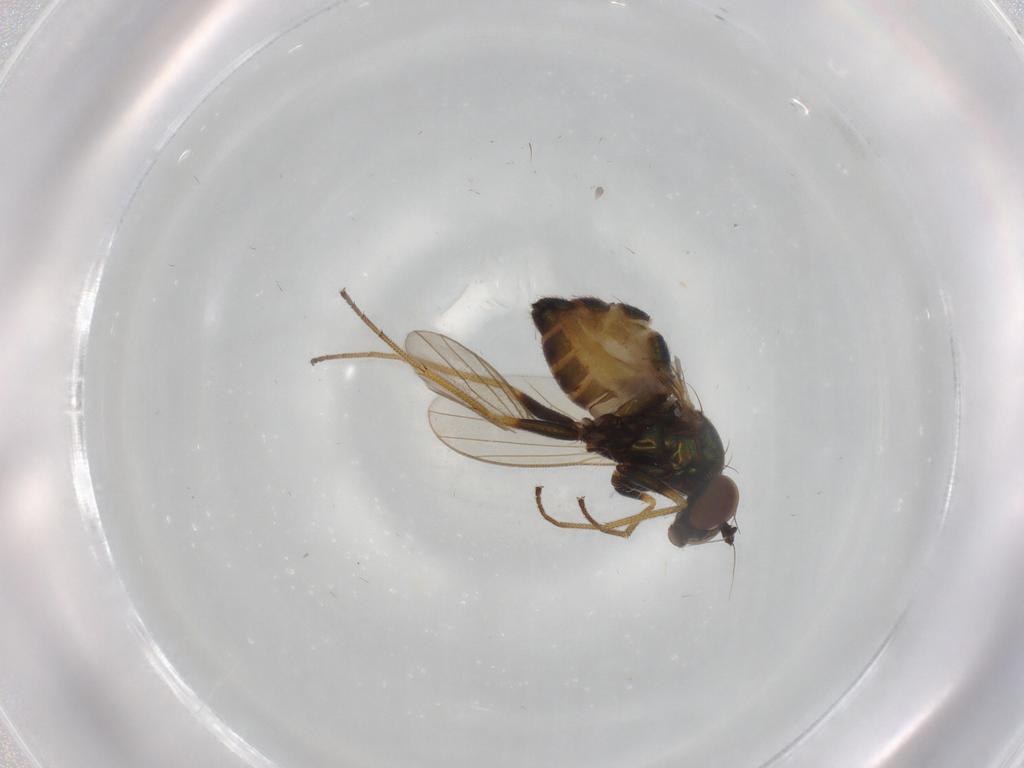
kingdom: Animalia
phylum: Arthropoda
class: Insecta
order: Diptera
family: Dolichopodidae
